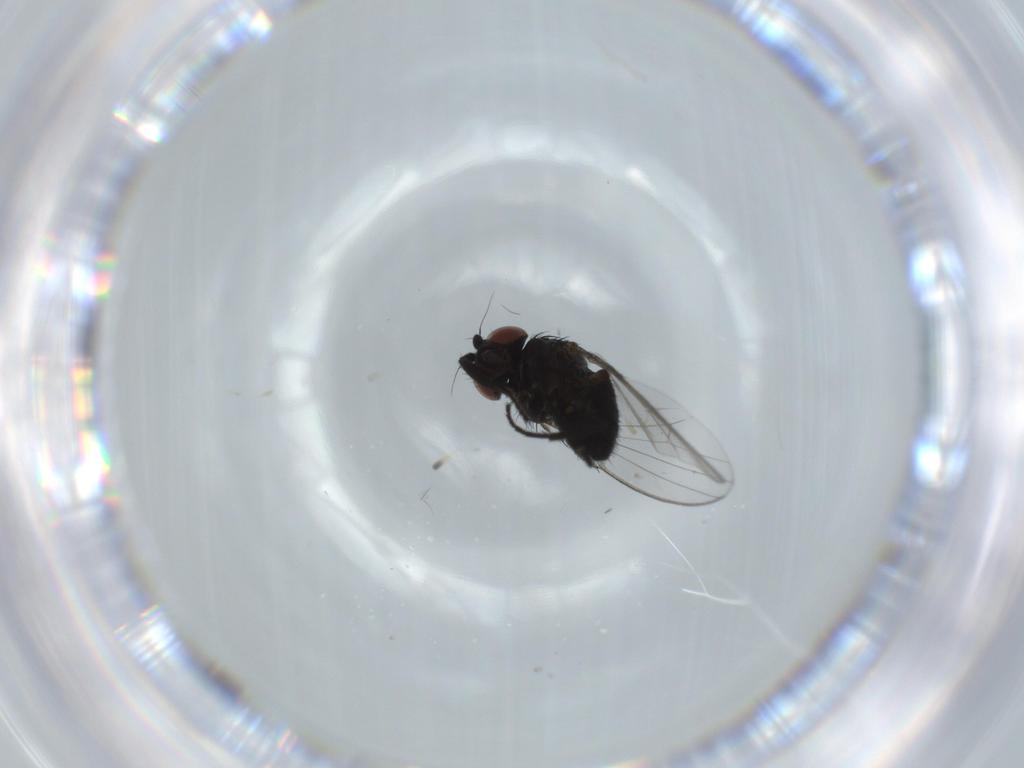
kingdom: Animalia
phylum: Arthropoda
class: Insecta
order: Diptera
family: Milichiidae
